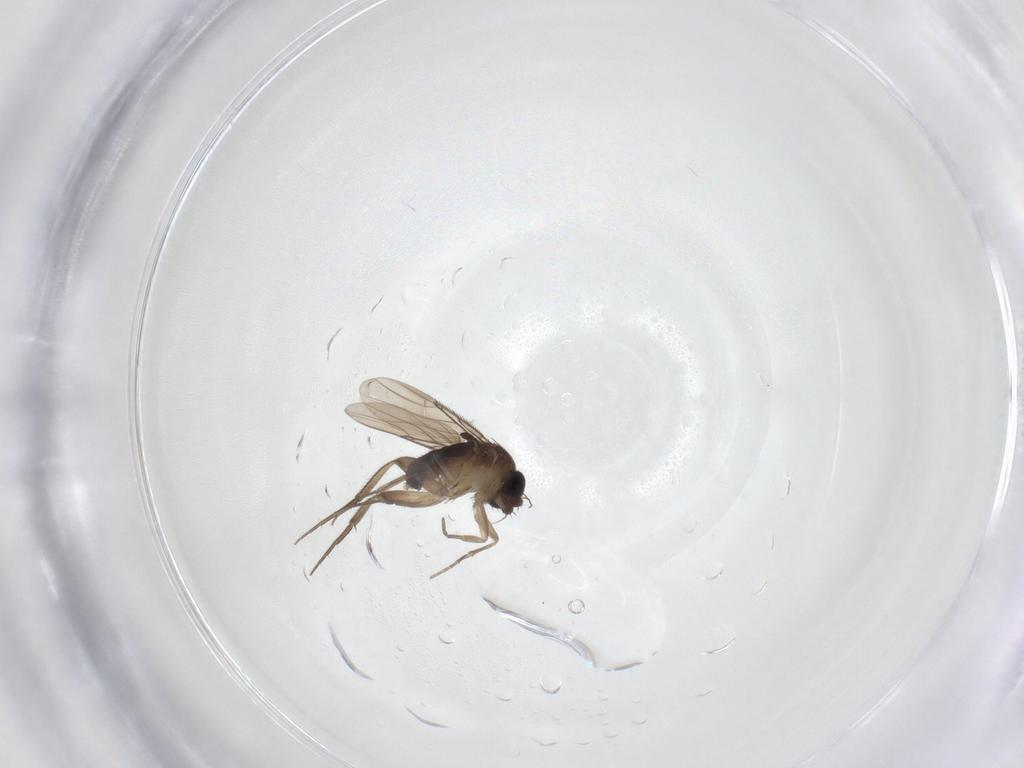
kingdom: Animalia
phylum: Arthropoda
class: Insecta
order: Diptera
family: Phoridae
